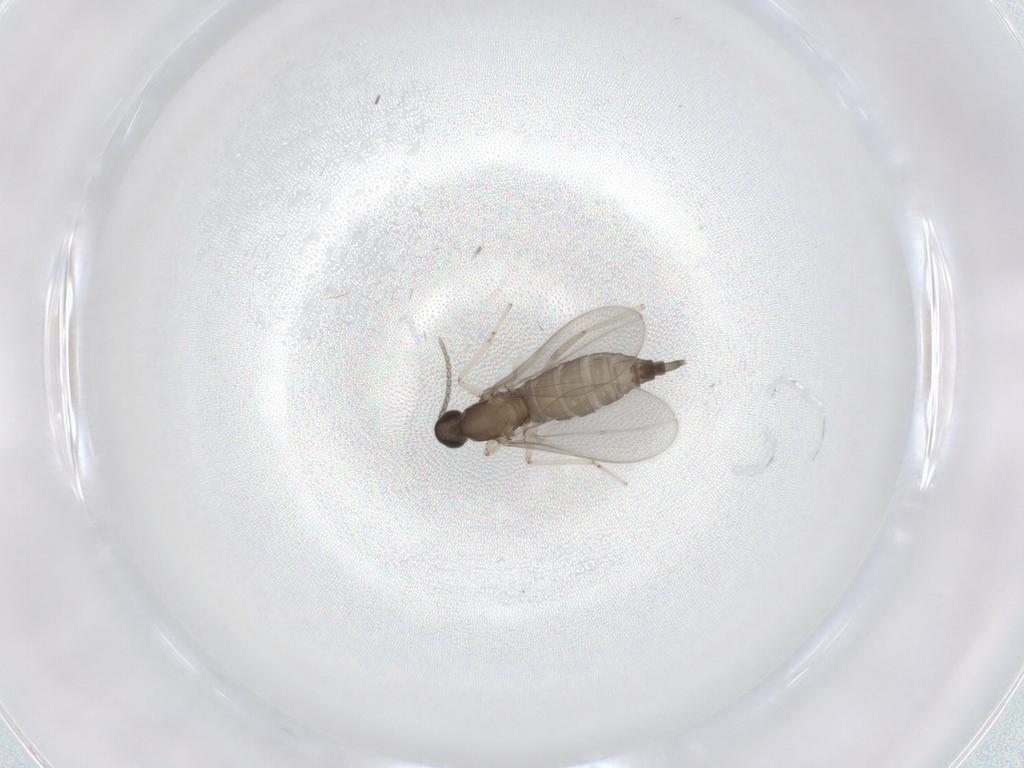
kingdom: Animalia
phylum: Arthropoda
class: Insecta
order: Diptera
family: Cecidomyiidae
